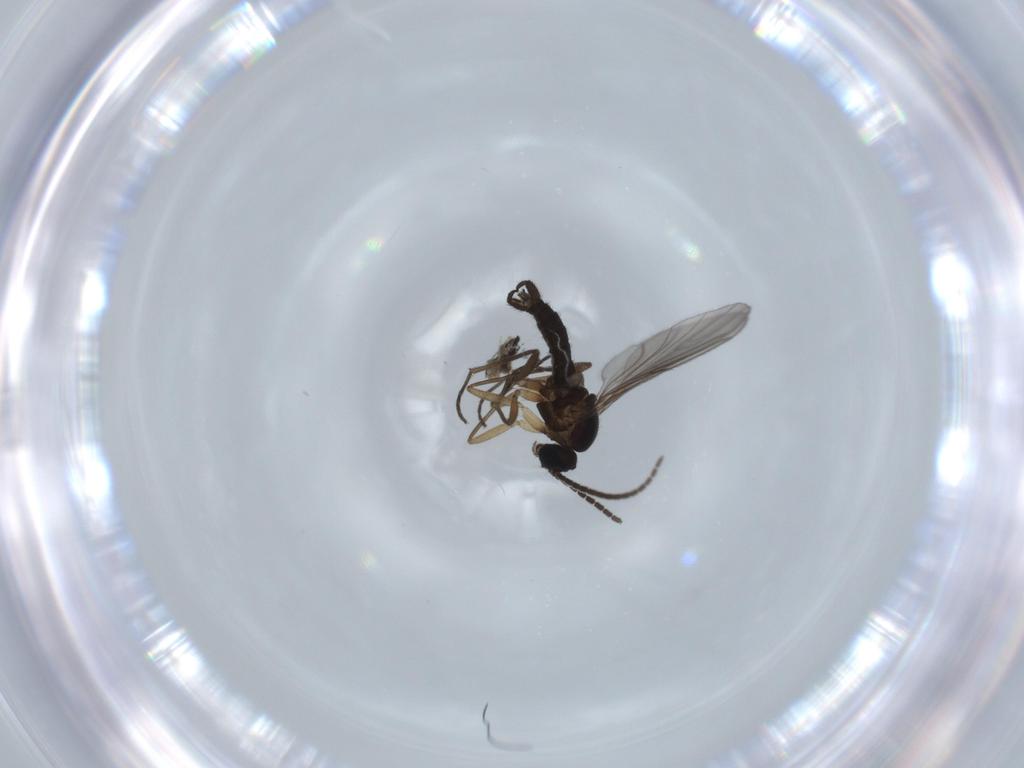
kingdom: Animalia
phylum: Arthropoda
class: Insecta
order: Diptera
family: Sciaridae
